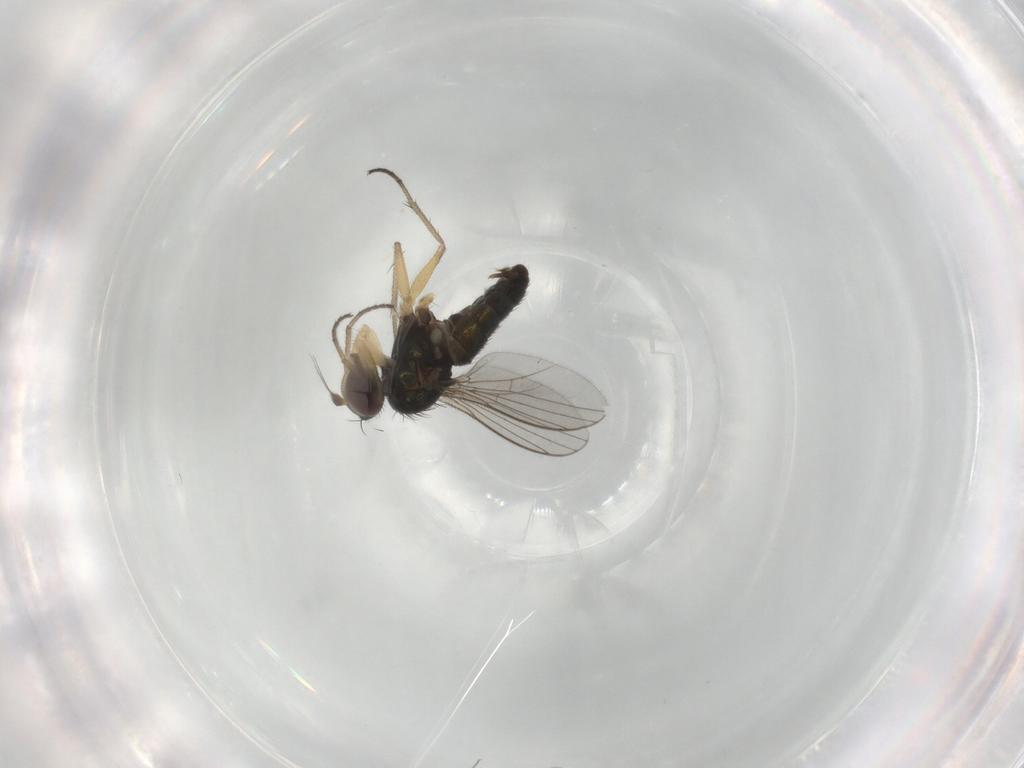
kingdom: Animalia
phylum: Arthropoda
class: Insecta
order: Diptera
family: Dolichopodidae
